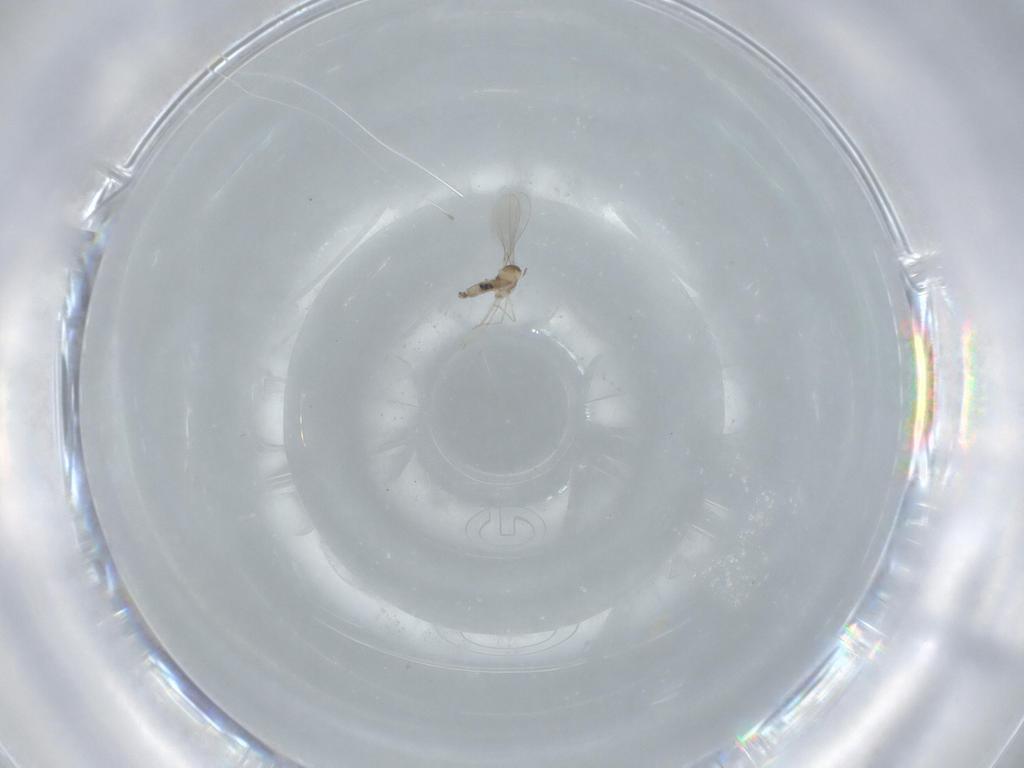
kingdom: Animalia
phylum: Arthropoda
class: Insecta
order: Diptera
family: Cecidomyiidae
